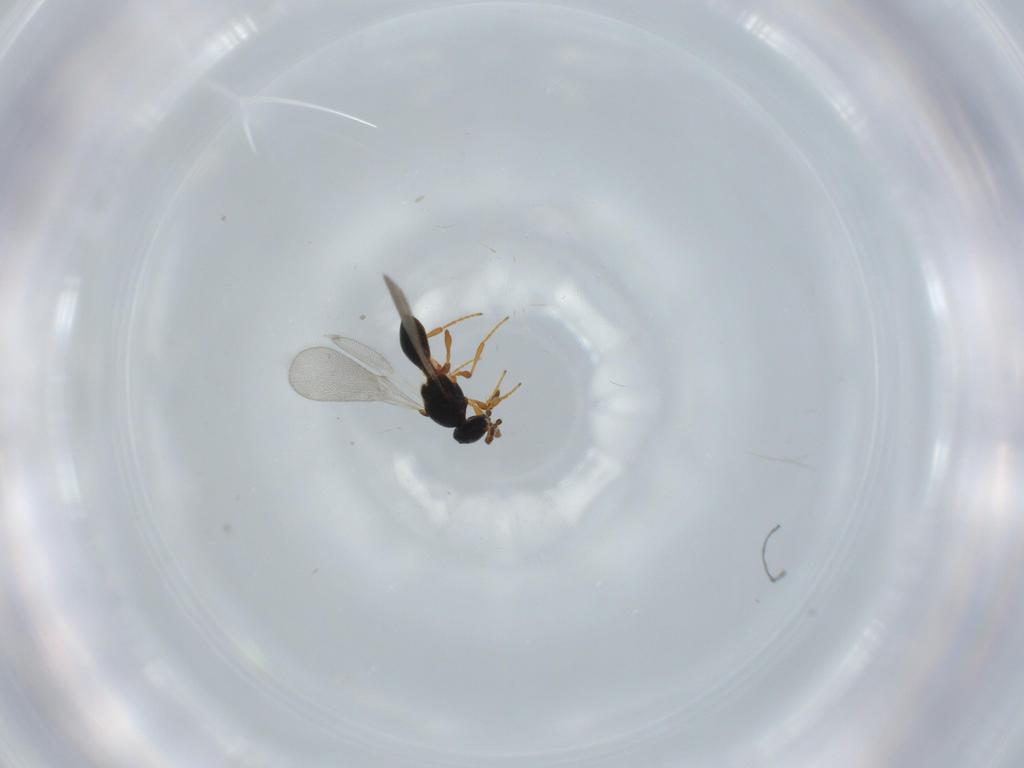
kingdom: Animalia
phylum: Arthropoda
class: Insecta
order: Hymenoptera
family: Platygastridae
